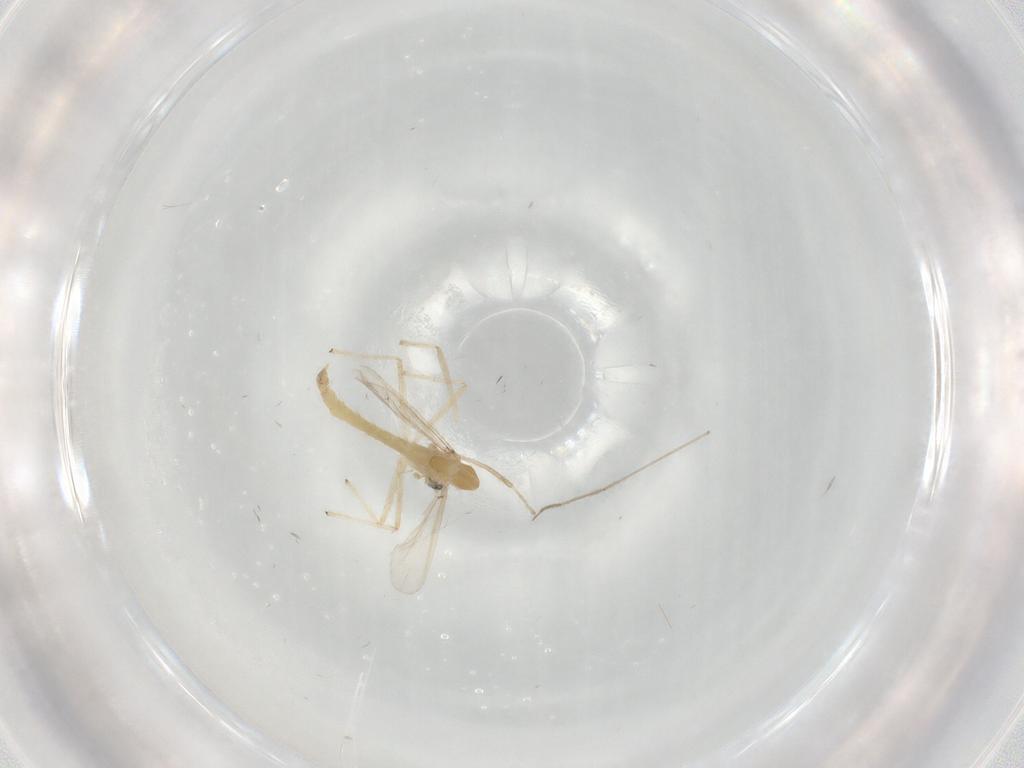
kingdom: Animalia
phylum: Arthropoda
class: Insecta
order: Diptera
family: Chironomidae
